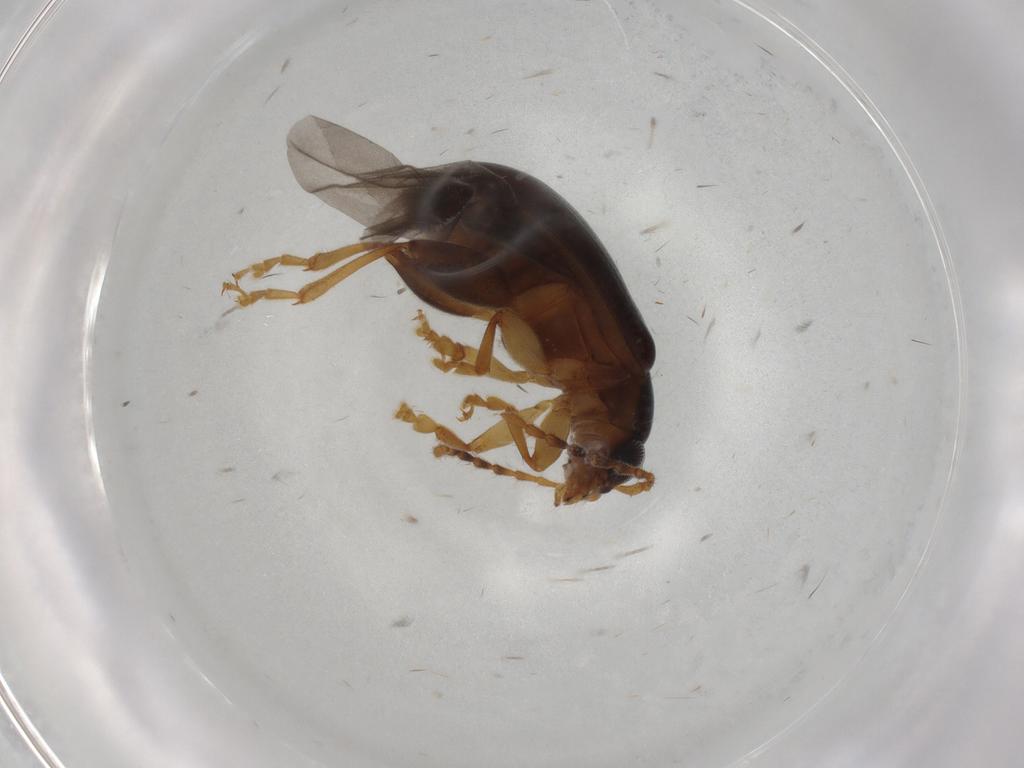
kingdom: Animalia
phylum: Arthropoda
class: Insecta
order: Coleoptera
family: Chrysomelidae
